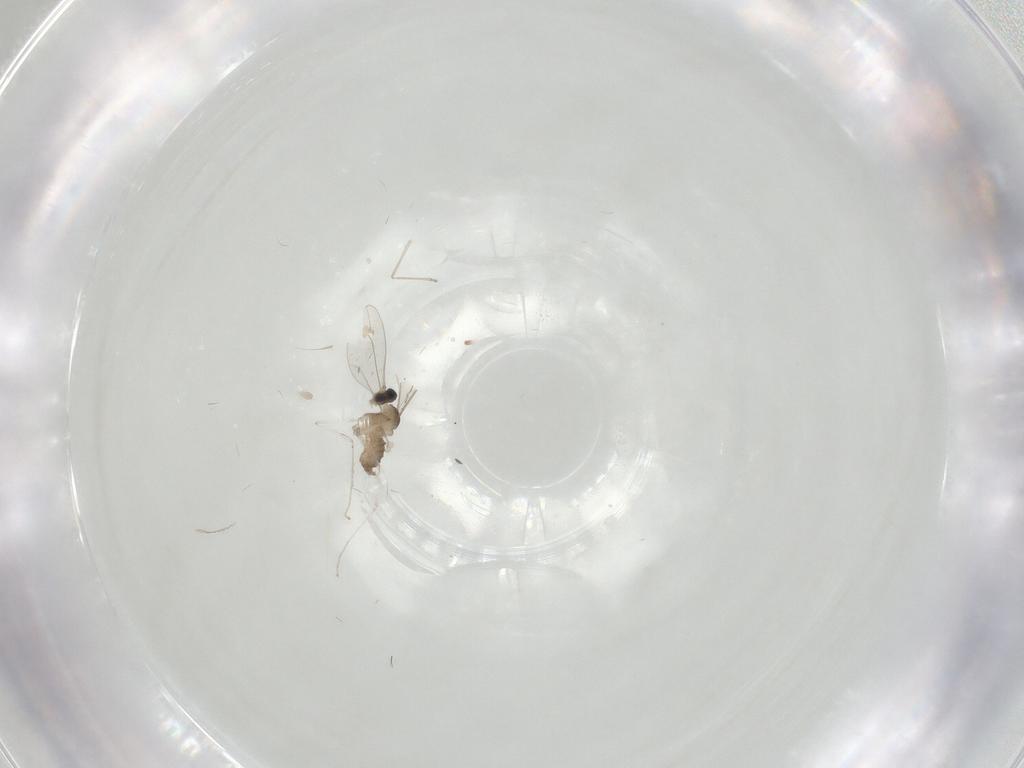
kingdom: Animalia
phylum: Arthropoda
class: Insecta
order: Diptera
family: Cecidomyiidae
